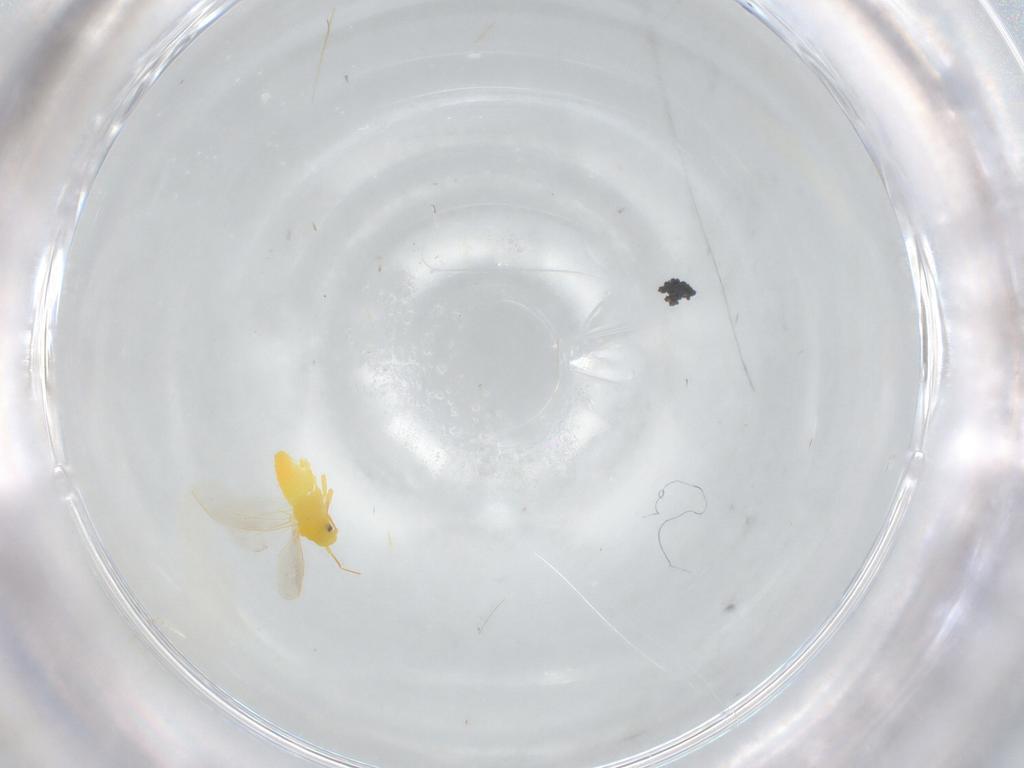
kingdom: Animalia
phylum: Arthropoda
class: Insecta
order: Hemiptera
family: Aleyrodidae
